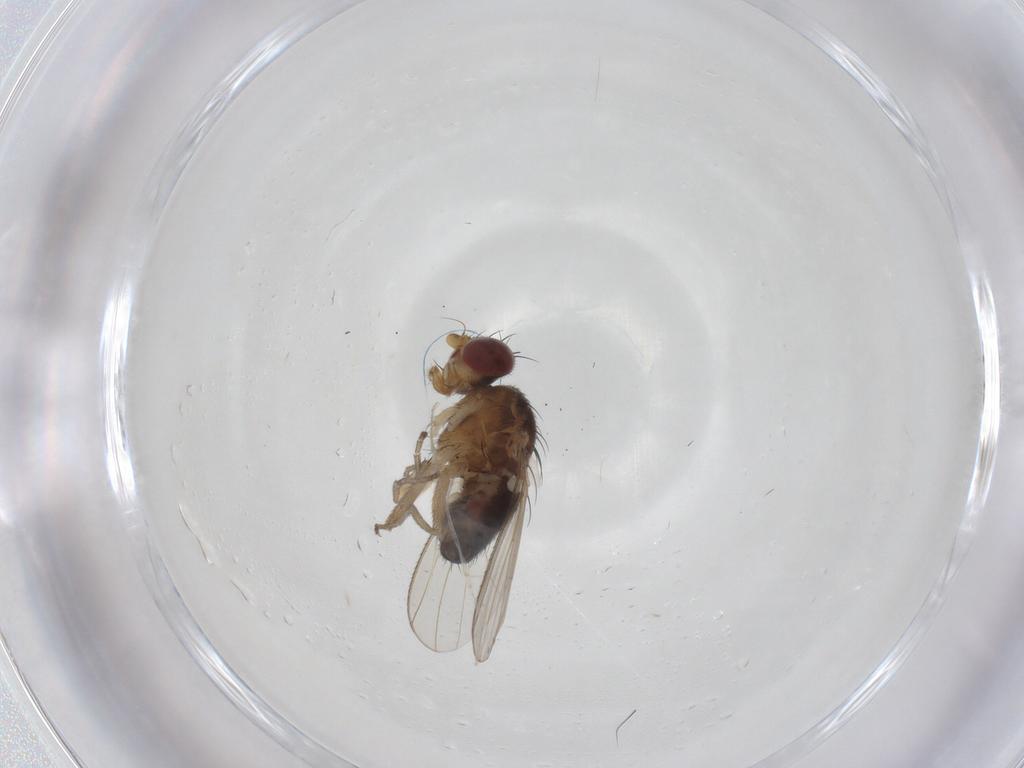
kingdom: Animalia
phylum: Arthropoda
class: Insecta
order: Diptera
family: Heleomyzidae
